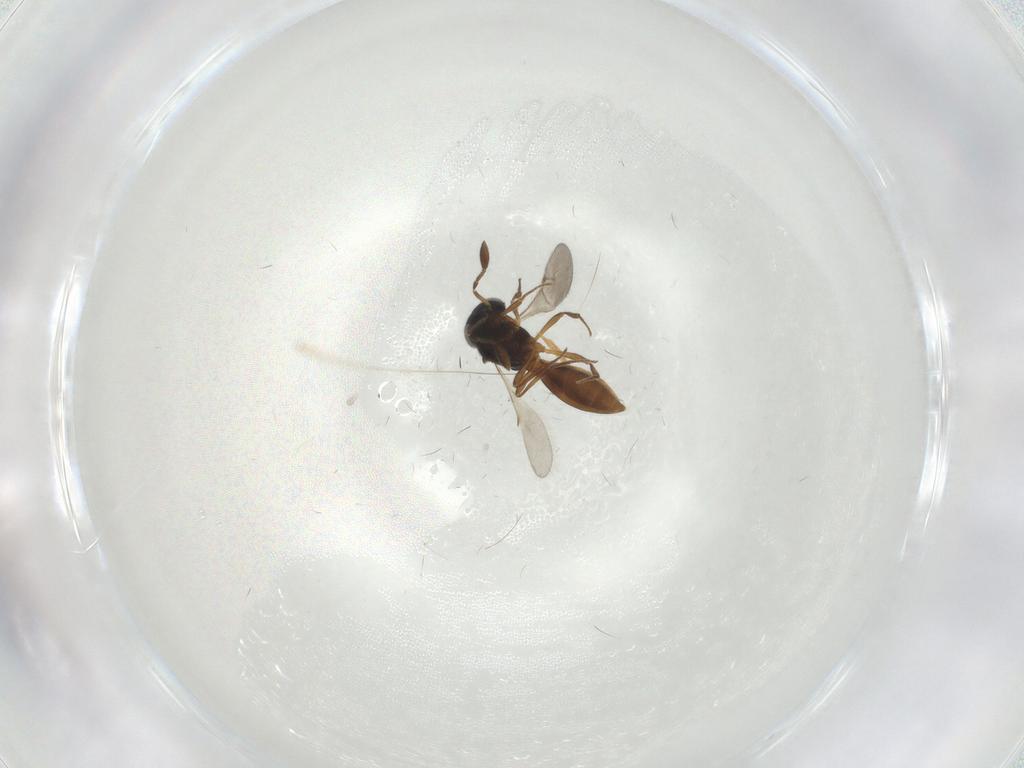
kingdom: Animalia
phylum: Arthropoda
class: Insecta
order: Hymenoptera
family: Scelionidae
